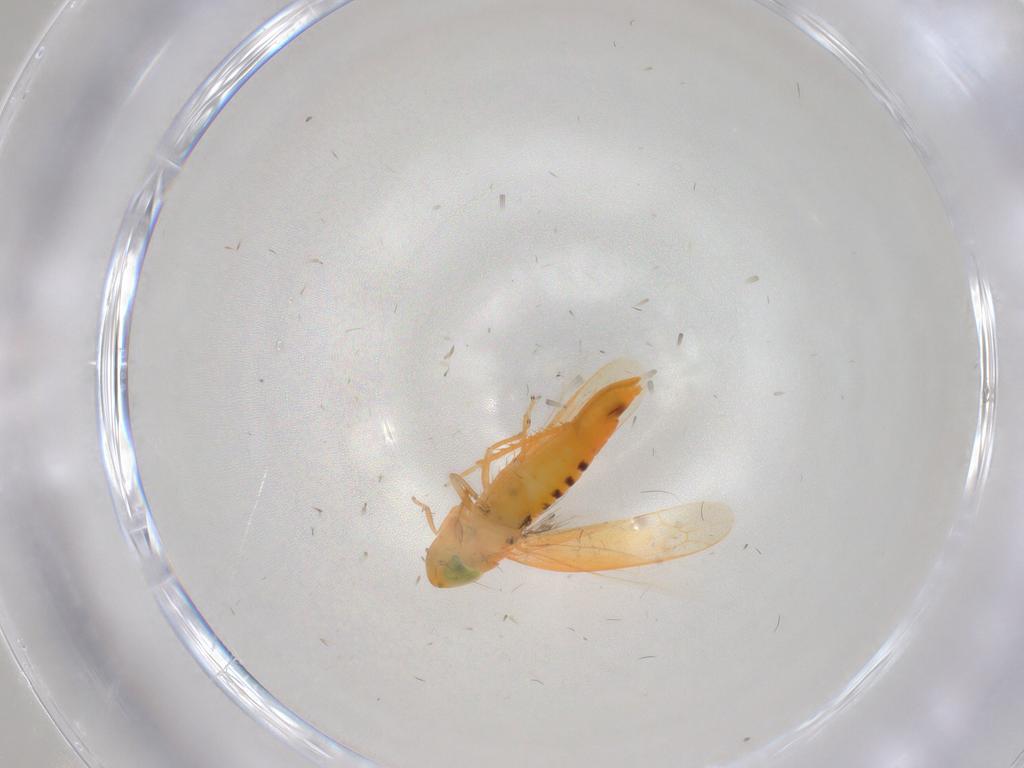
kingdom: Animalia
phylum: Arthropoda
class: Insecta
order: Hemiptera
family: Cicadellidae
